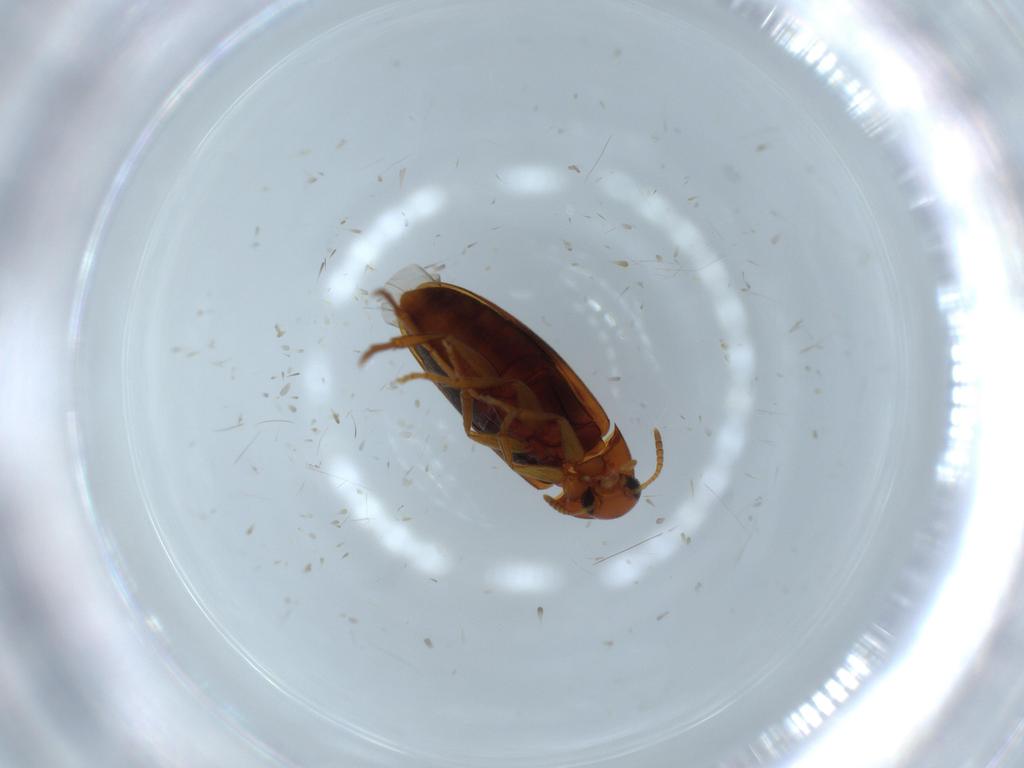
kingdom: Animalia
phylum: Arthropoda
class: Insecta
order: Coleoptera
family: Scraptiidae
